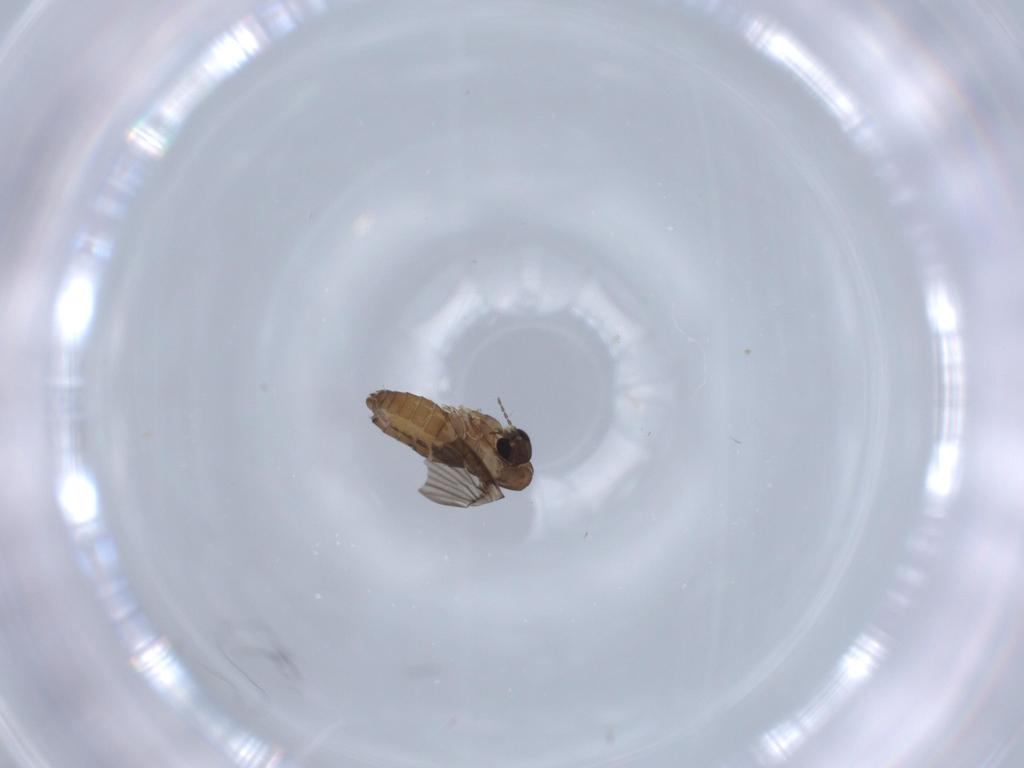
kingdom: Animalia
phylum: Arthropoda
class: Insecta
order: Diptera
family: Psychodidae
